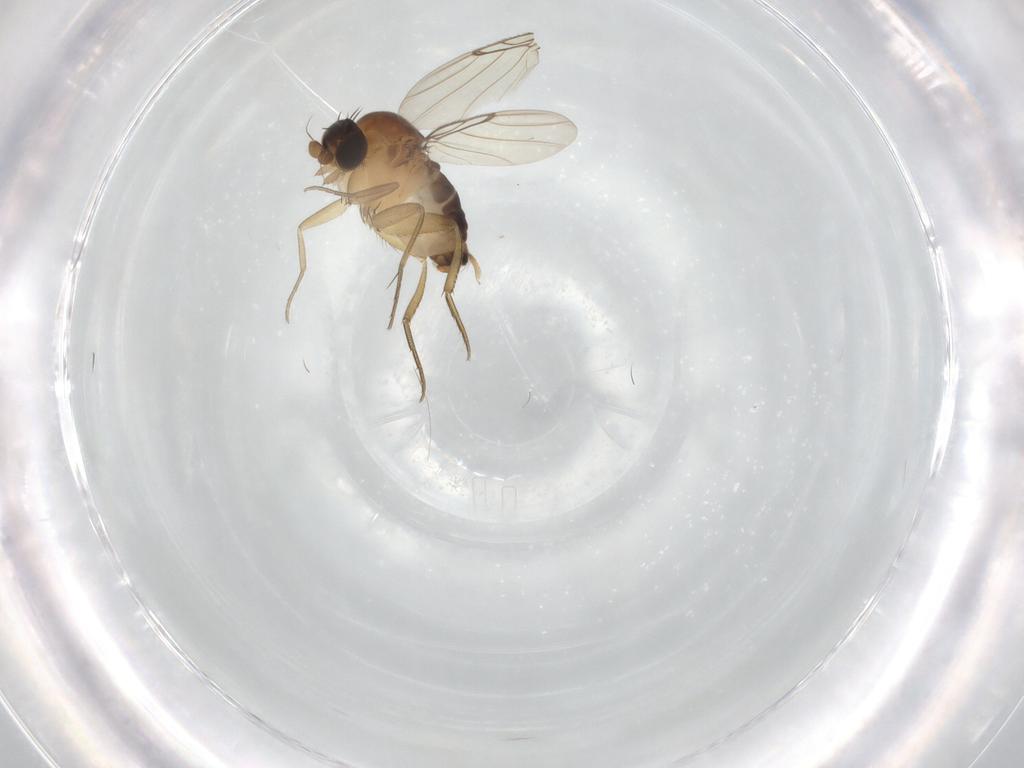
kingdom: Animalia
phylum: Arthropoda
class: Insecta
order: Diptera
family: Phoridae
